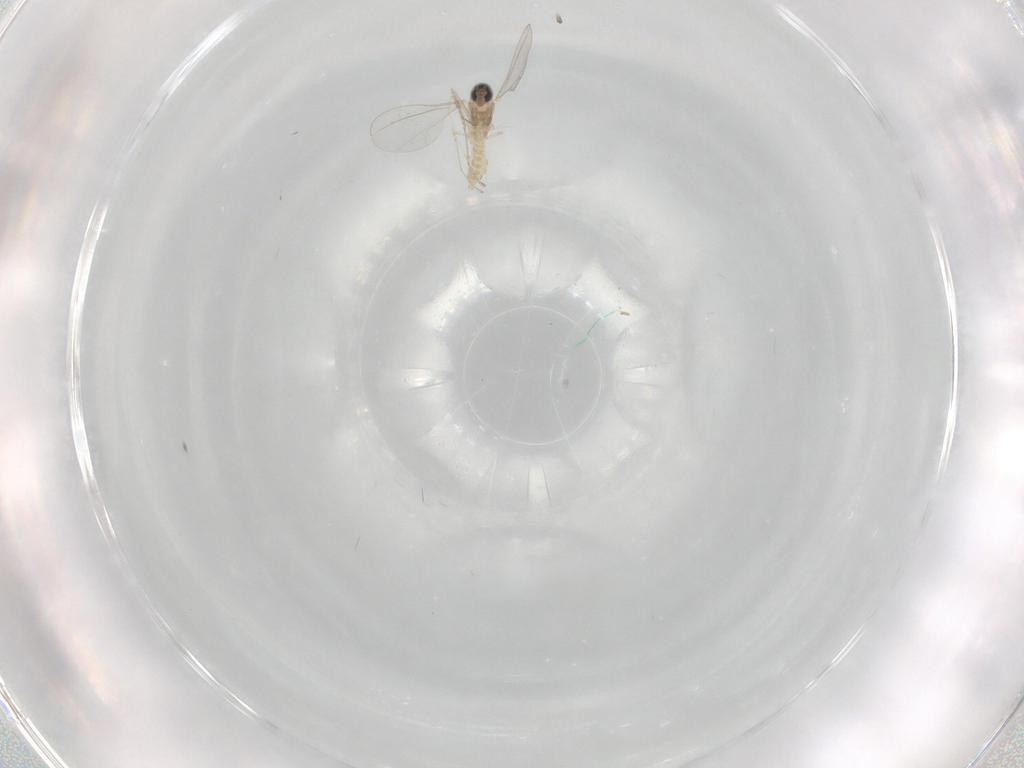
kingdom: Animalia
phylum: Arthropoda
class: Insecta
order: Diptera
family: Cecidomyiidae
